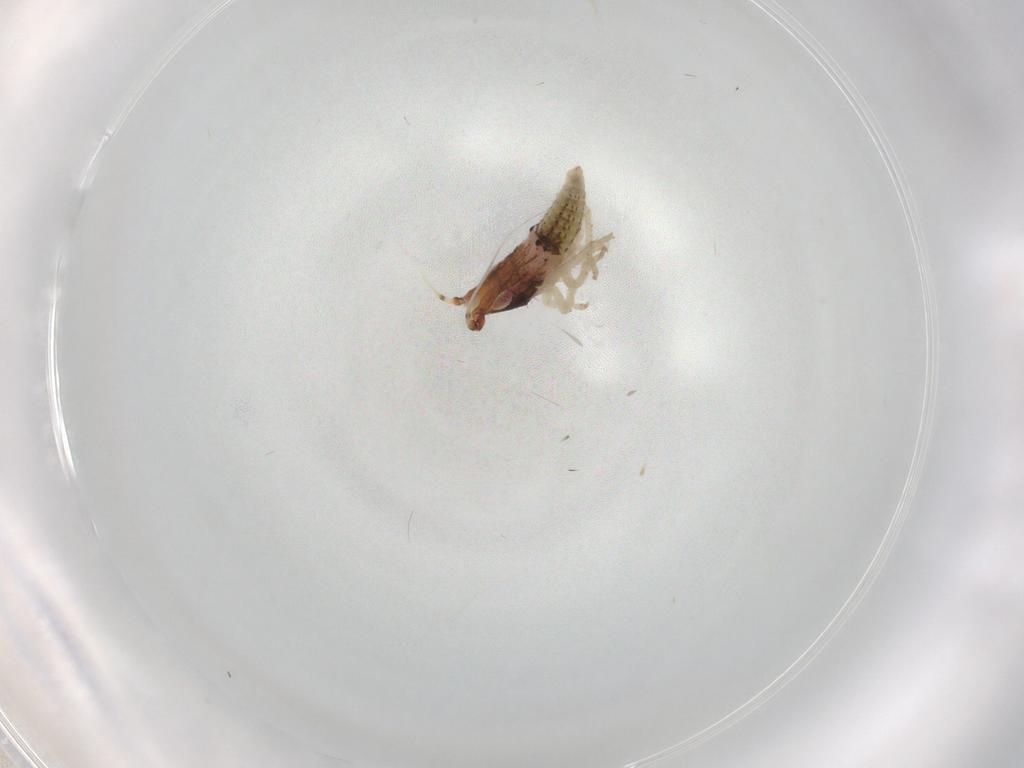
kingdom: Animalia
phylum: Arthropoda
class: Insecta
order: Hemiptera
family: Cicadellidae
